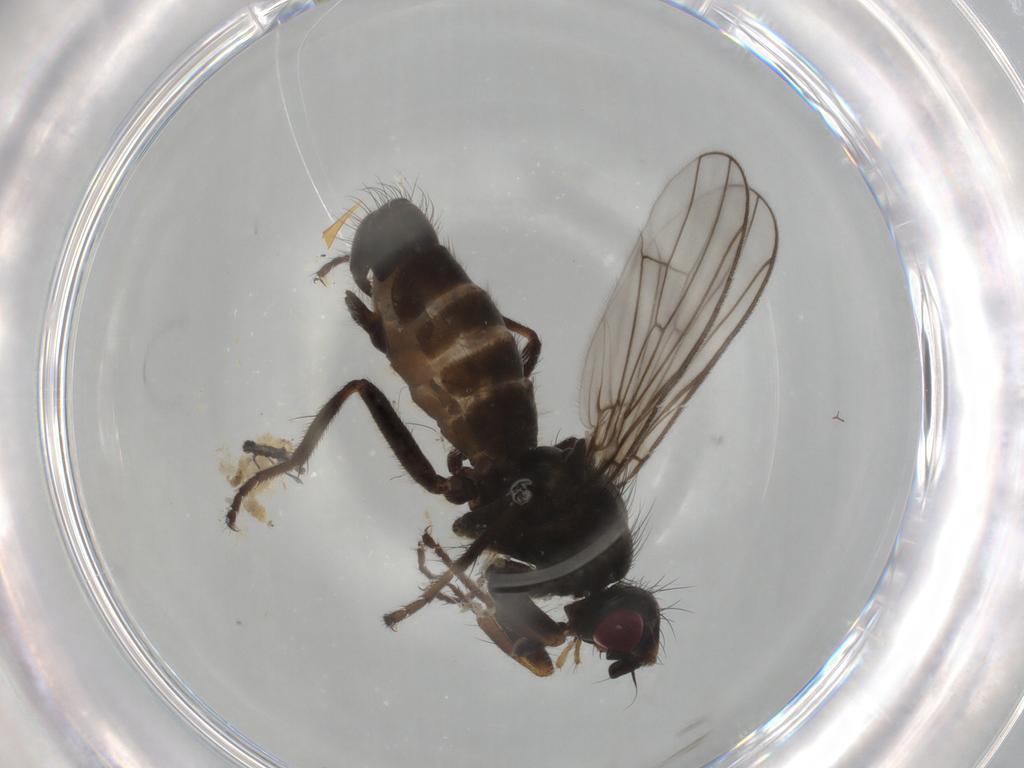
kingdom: Animalia
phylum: Arthropoda
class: Insecta
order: Diptera
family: Scathophagidae
